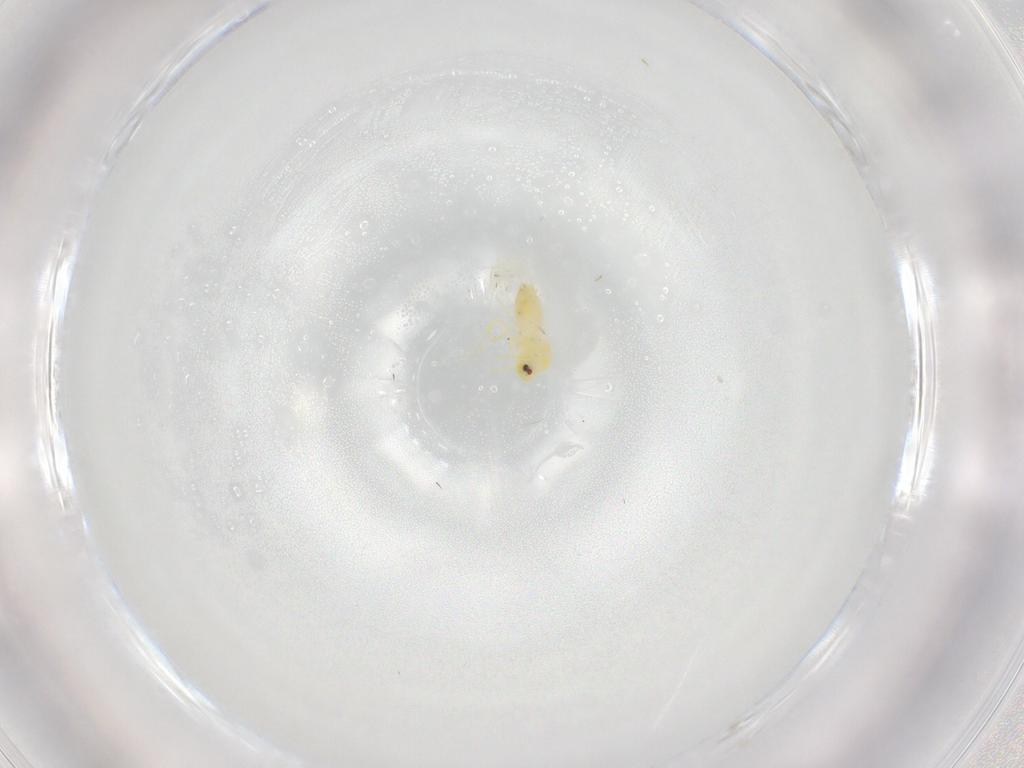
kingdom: Animalia
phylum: Arthropoda
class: Insecta
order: Hemiptera
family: Aleyrodidae
